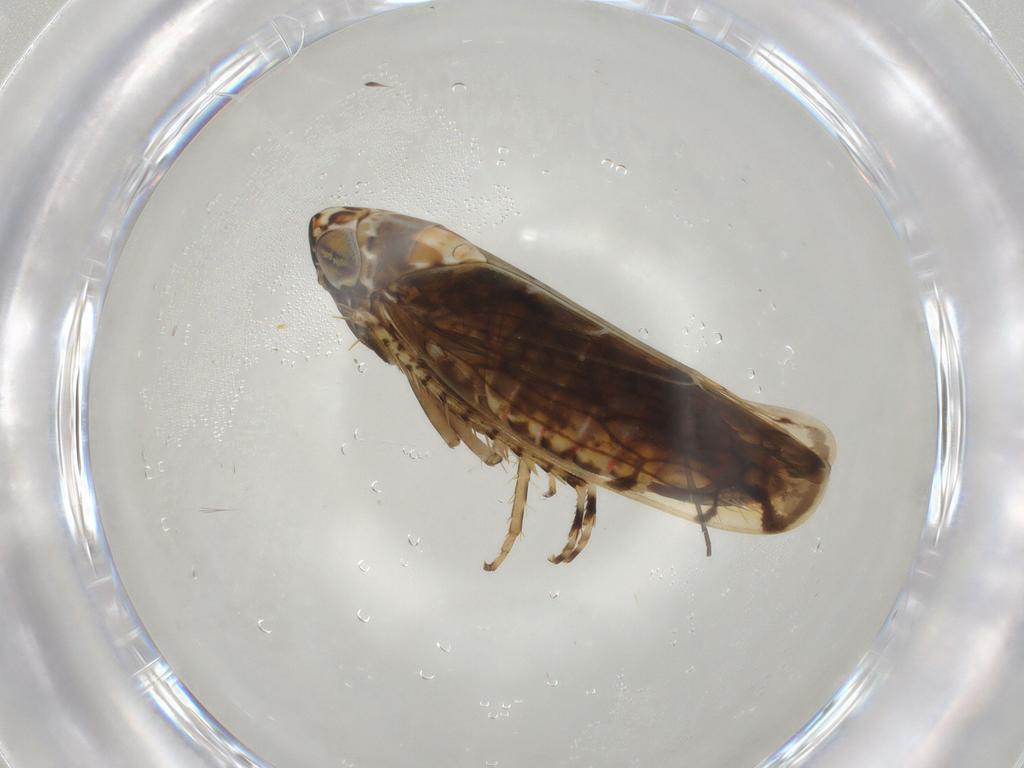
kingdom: Animalia
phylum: Arthropoda
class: Insecta
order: Hemiptera
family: Cicadellidae
